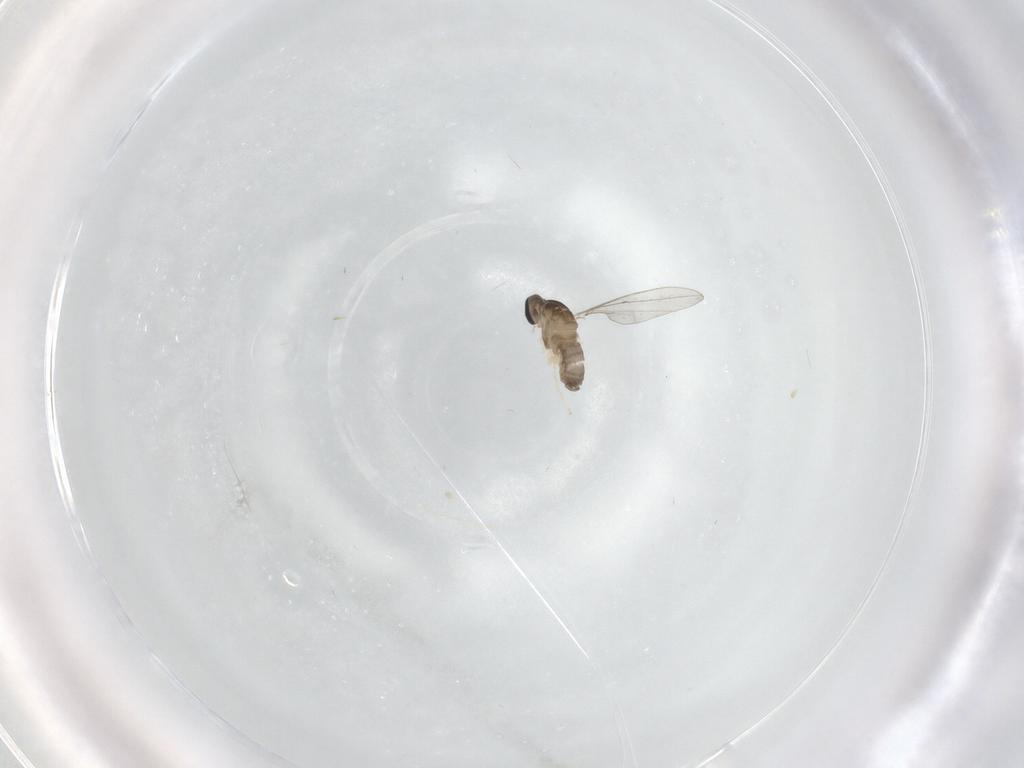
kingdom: Animalia
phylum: Arthropoda
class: Insecta
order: Diptera
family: Cecidomyiidae
